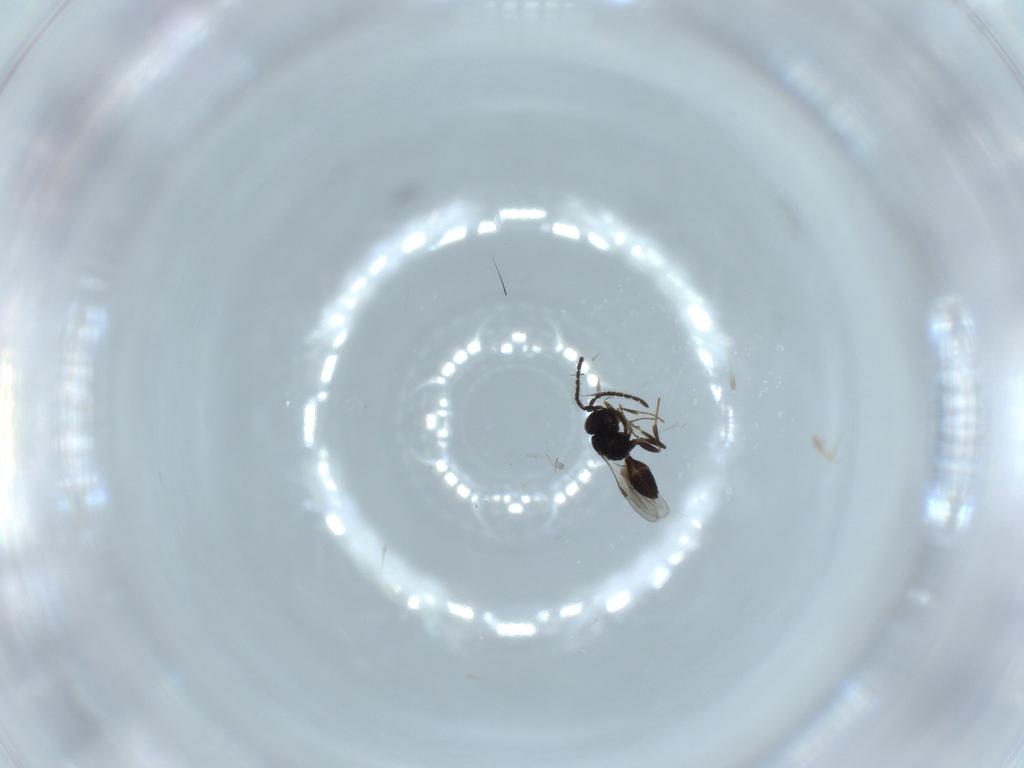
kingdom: Animalia
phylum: Arthropoda
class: Insecta
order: Hymenoptera
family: Megaspilidae
